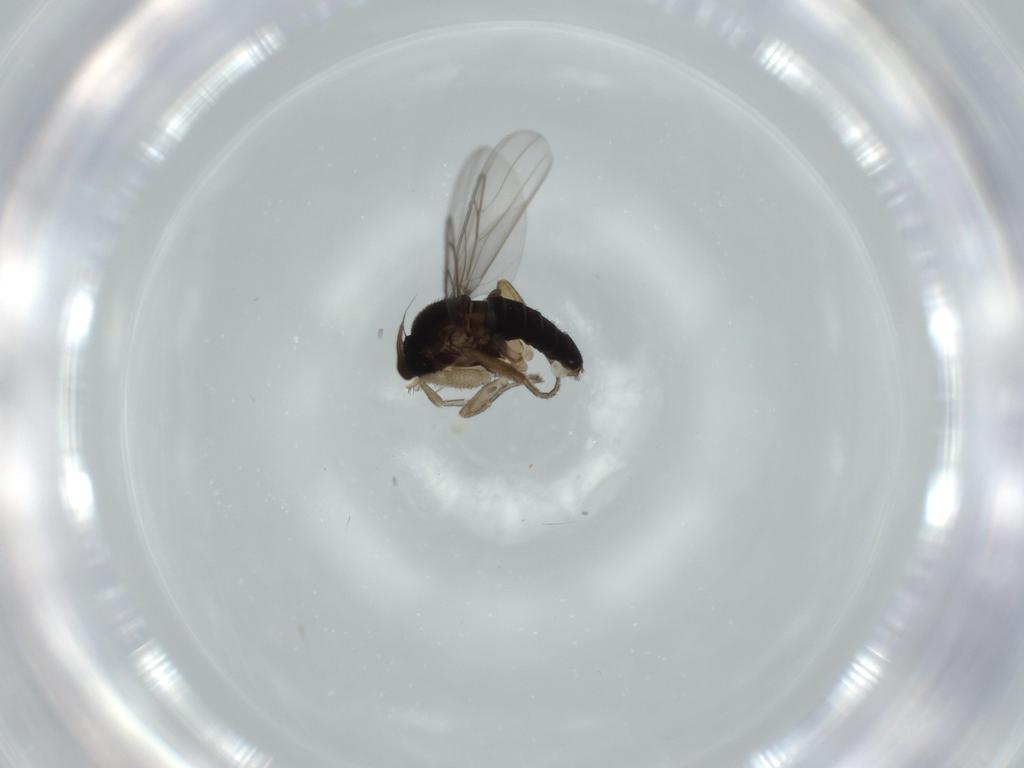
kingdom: Animalia
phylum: Arthropoda
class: Insecta
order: Diptera
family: Phoridae
